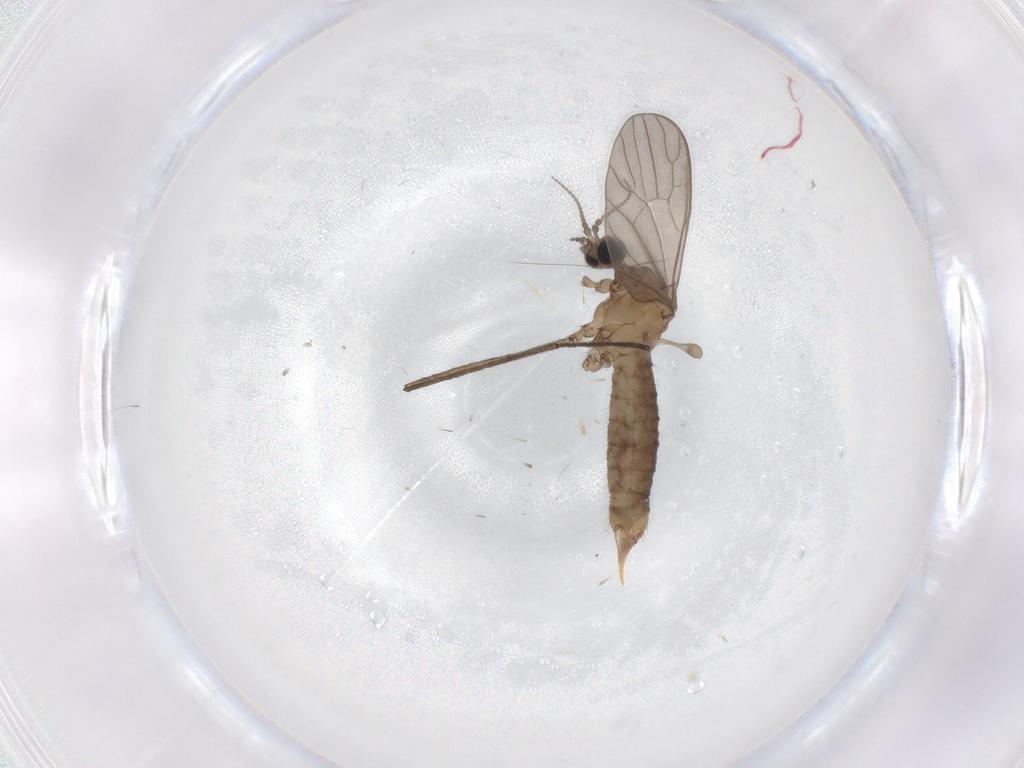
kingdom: Animalia
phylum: Arthropoda
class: Insecta
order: Diptera
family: Limoniidae
